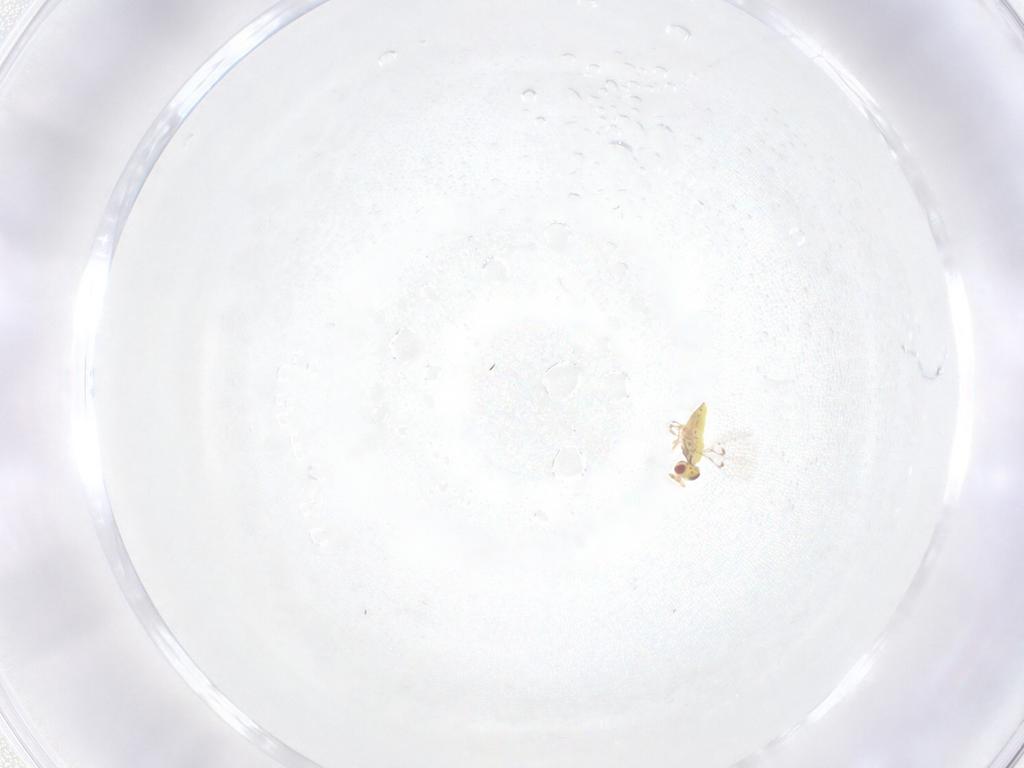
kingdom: Animalia
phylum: Arthropoda
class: Insecta
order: Hymenoptera
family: Trichogrammatidae
